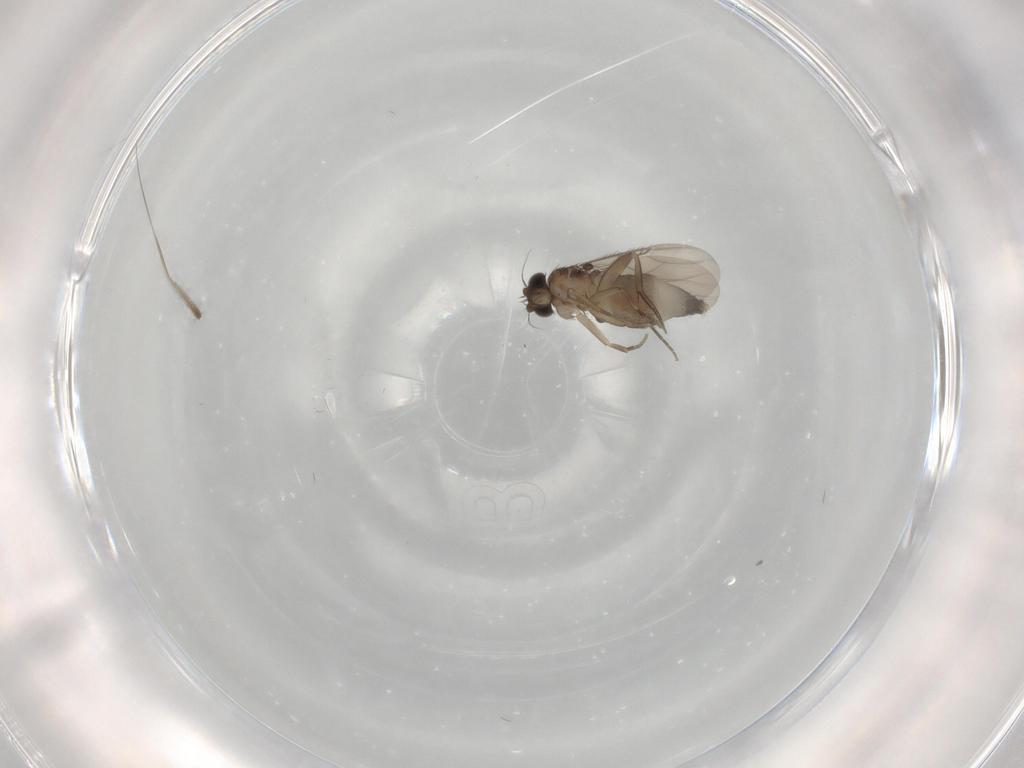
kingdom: Animalia
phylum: Arthropoda
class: Insecta
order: Diptera
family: Phoridae
